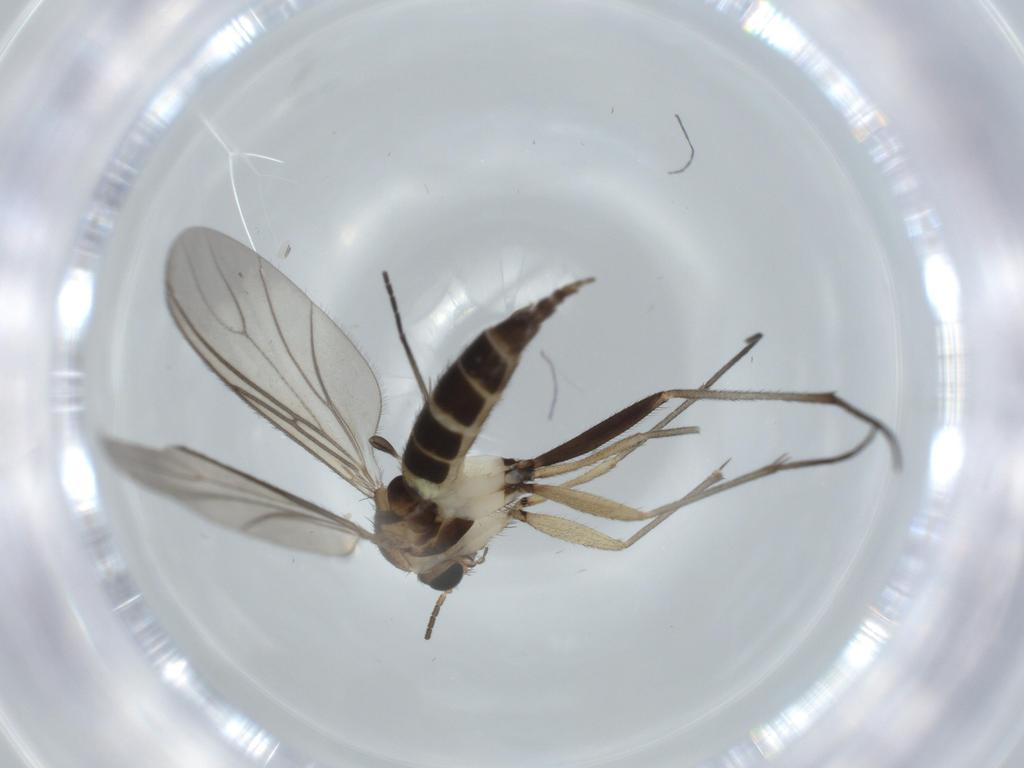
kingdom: Animalia
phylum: Arthropoda
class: Insecta
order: Diptera
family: Sciaridae
